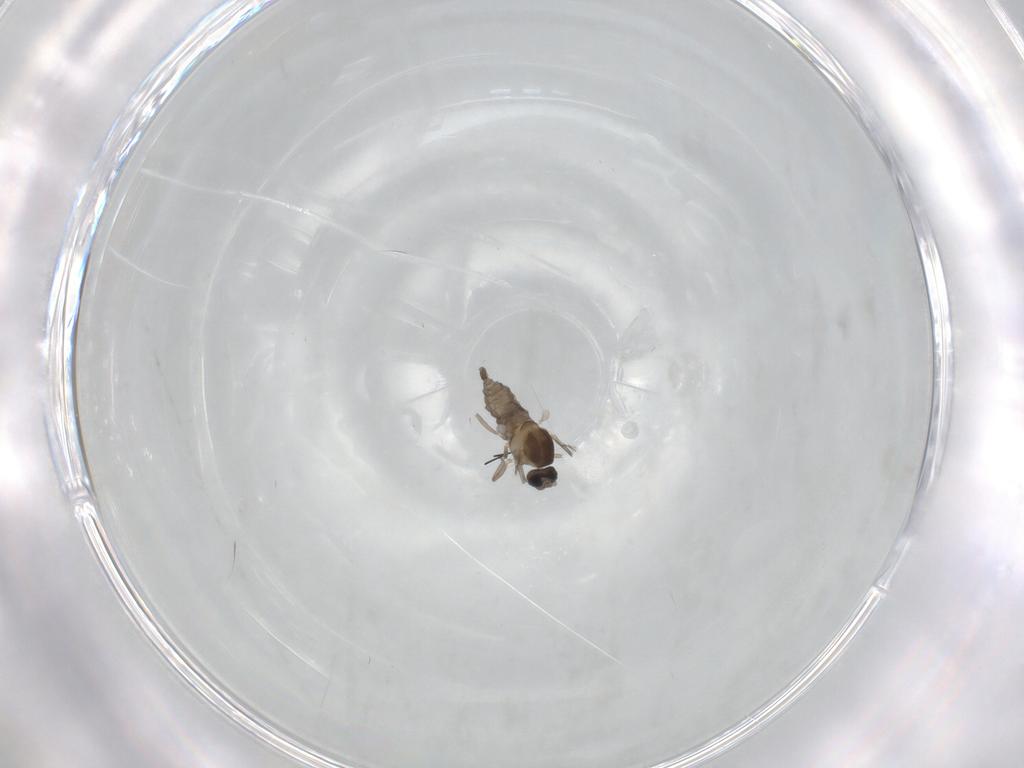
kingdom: Animalia
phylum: Arthropoda
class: Insecta
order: Diptera
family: Cecidomyiidae
